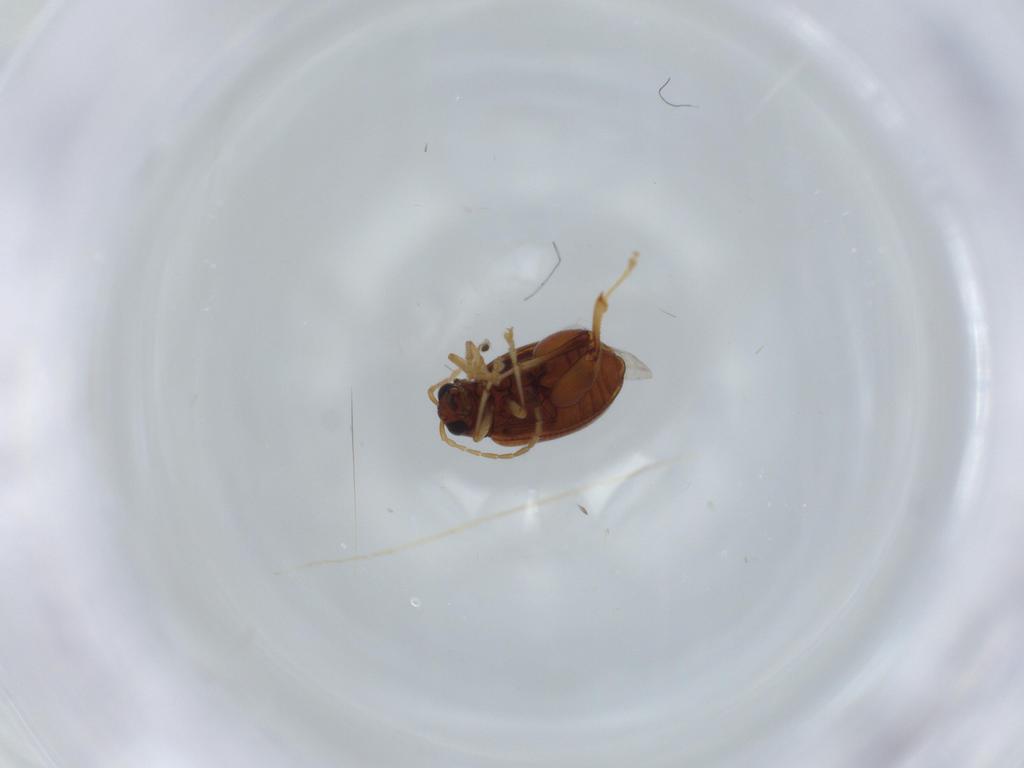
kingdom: Animalia
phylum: Arthropoda
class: Insecta
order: Coleoptera
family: Chrysomelidae
